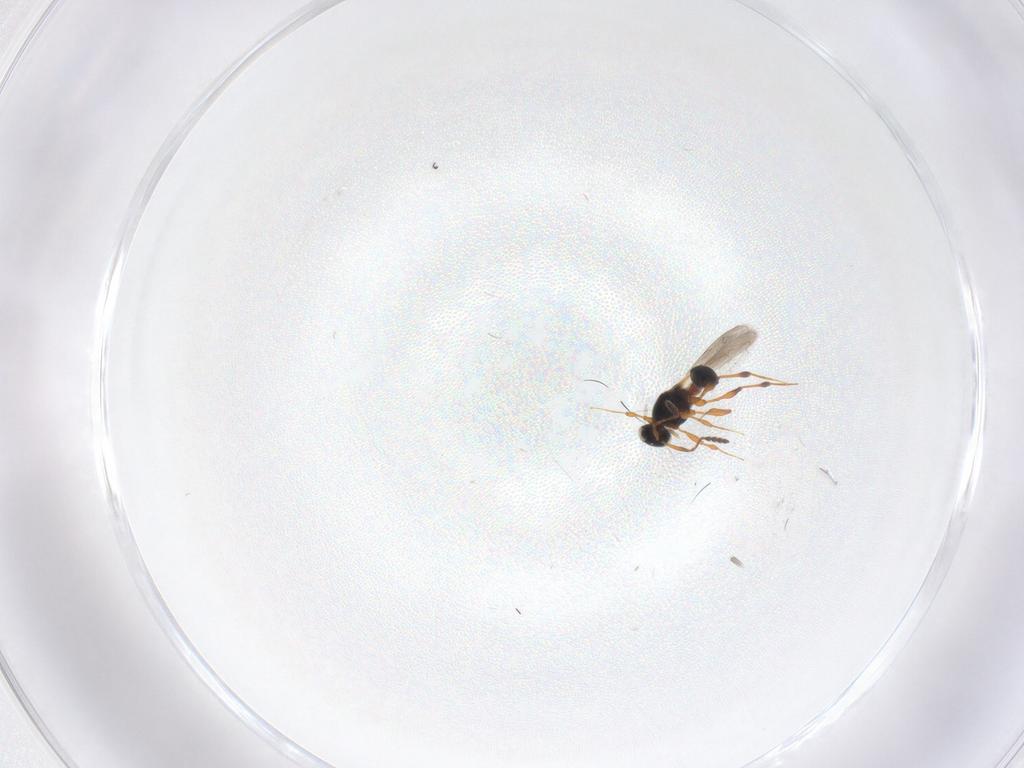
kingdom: Animalia
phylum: Arthropoda
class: Insecta
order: Hymenoptera
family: Platygastridae
